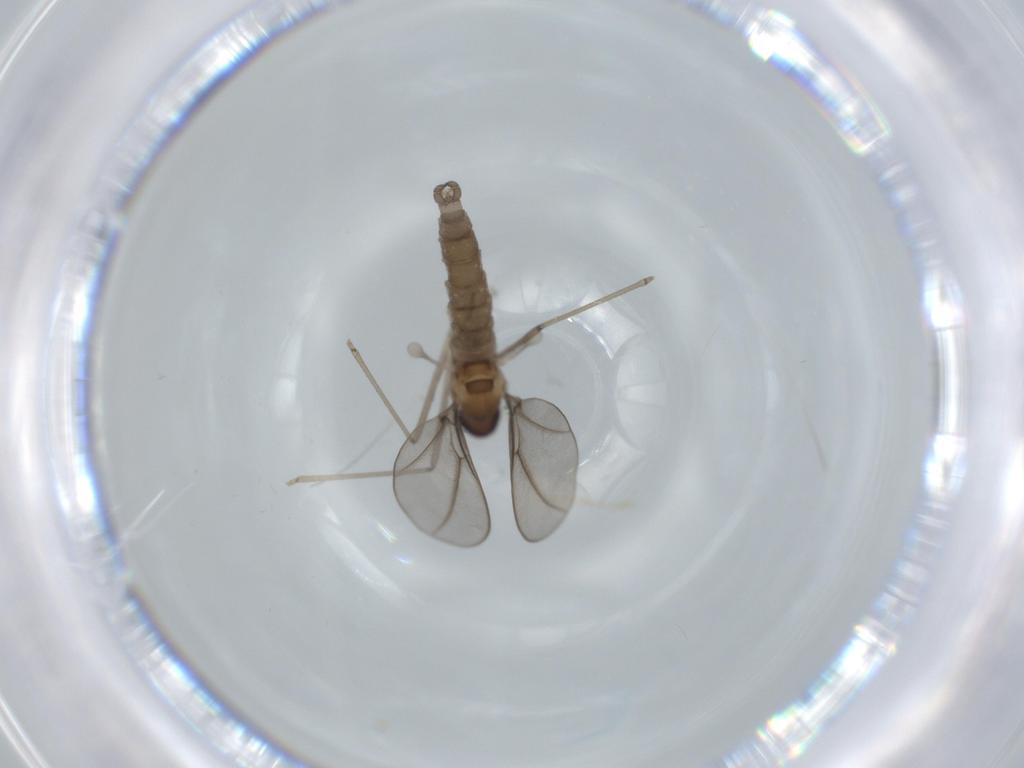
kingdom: Animalia
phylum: Arthropoda
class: Insecta
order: Diptera
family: Cecidomyiidae
